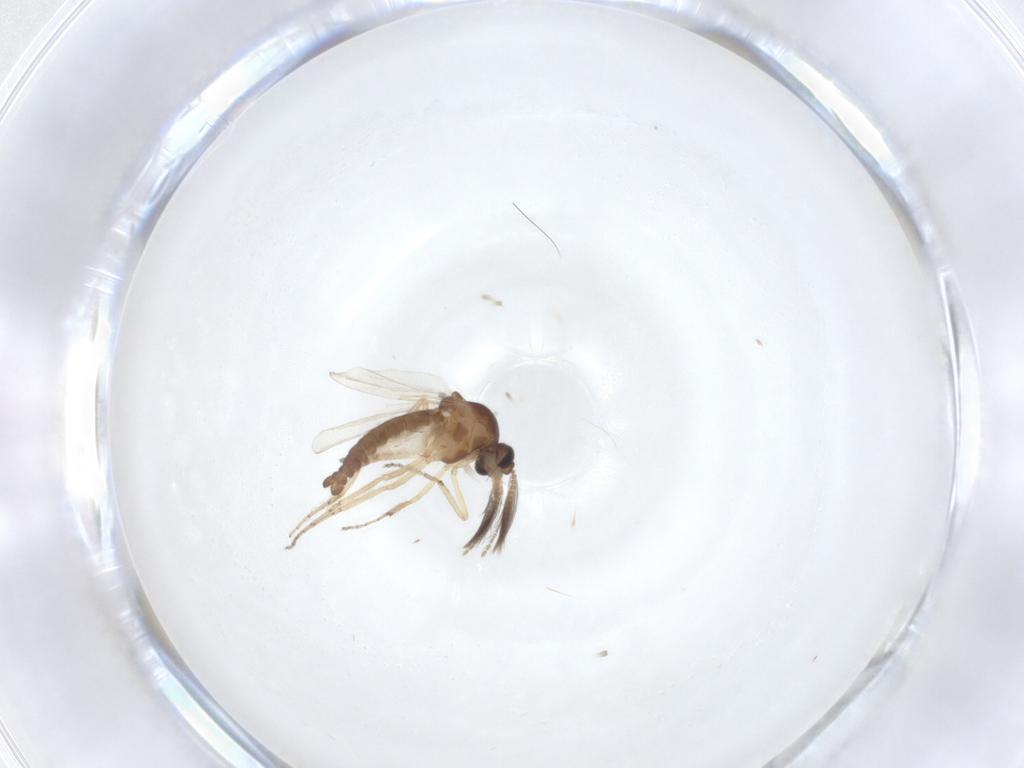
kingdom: Animalia
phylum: Arthropoda
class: Insecta
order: Diptera
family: Ceratopogonidae
